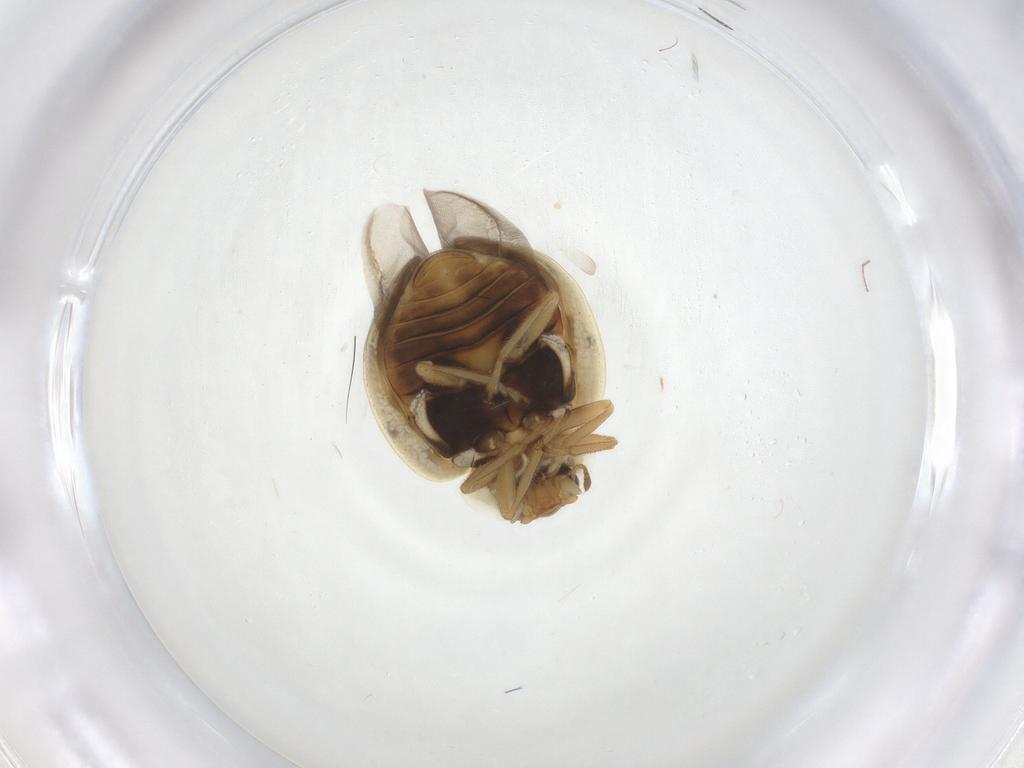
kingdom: Animalia
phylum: Arthropoda
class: Insecta
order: Coleoptera
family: Coccinellidae
